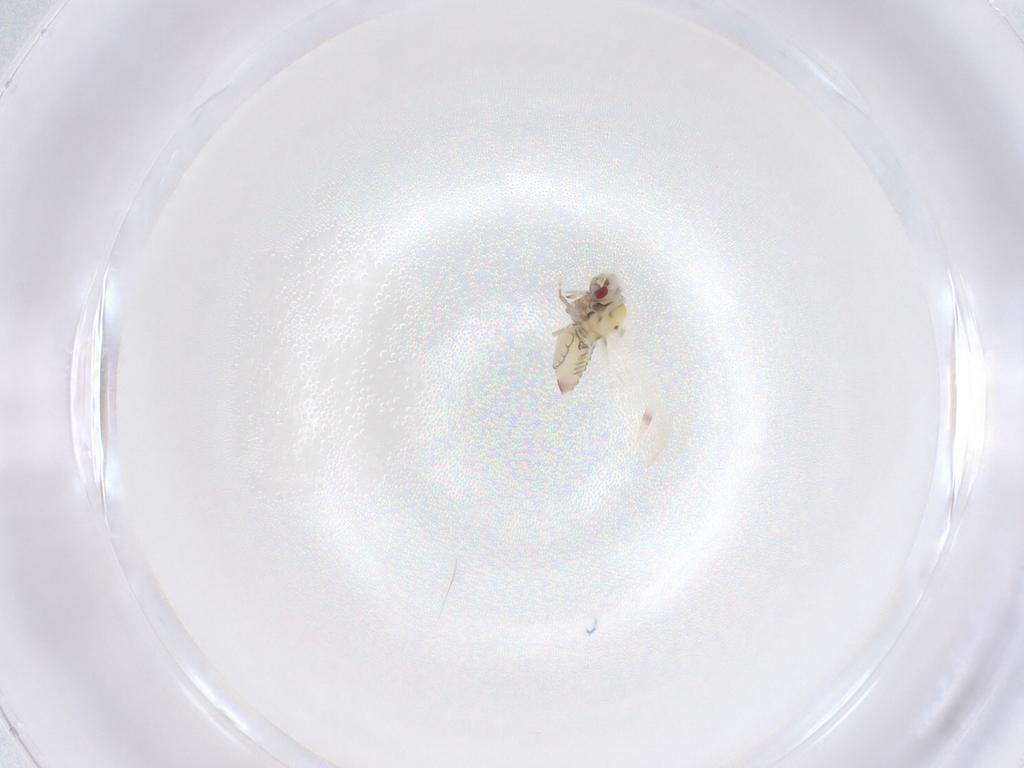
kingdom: Animalia
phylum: Arthropoda
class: Insecta
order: Hemiptera
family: Aleyrodidae
